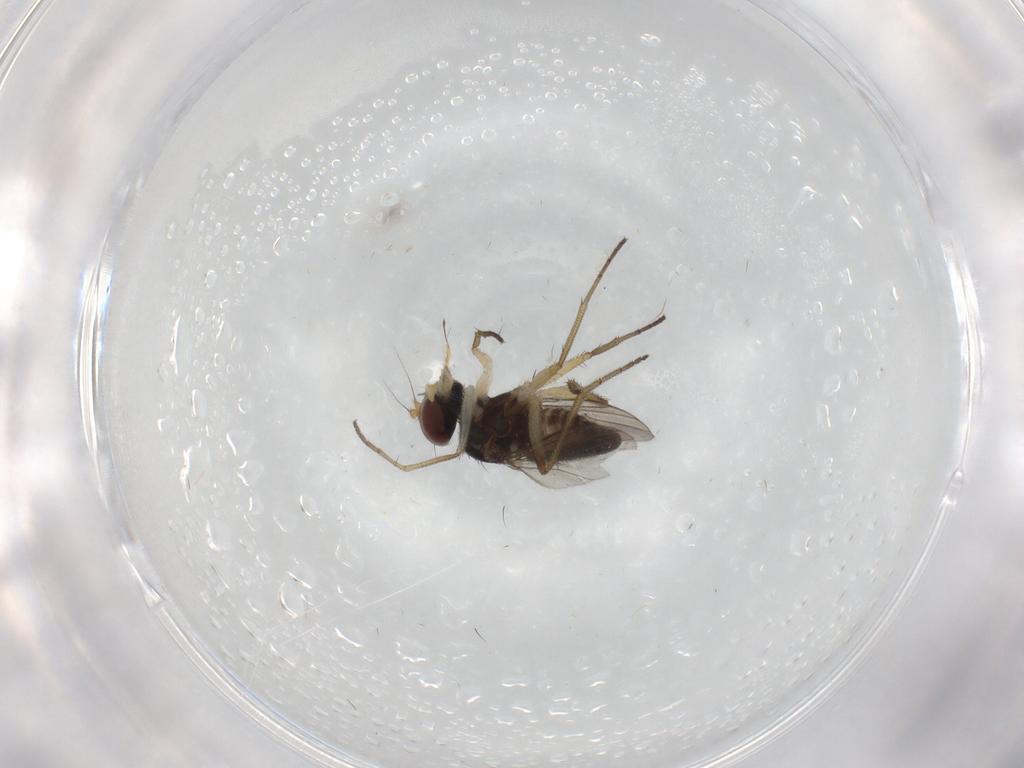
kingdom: Animalia
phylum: Arthropoda
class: Insecta
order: Diptera
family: Dolichopodidae
